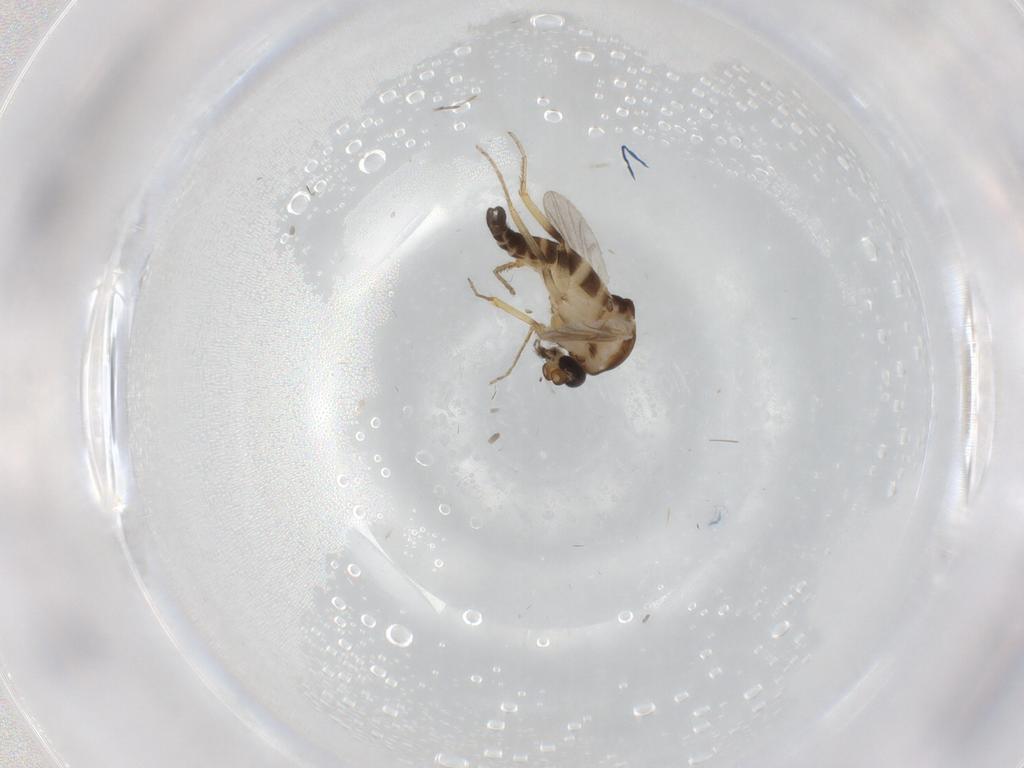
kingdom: Animalia
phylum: Arthropoda
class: Insecta
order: Diptera
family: Ceratopogonidae
